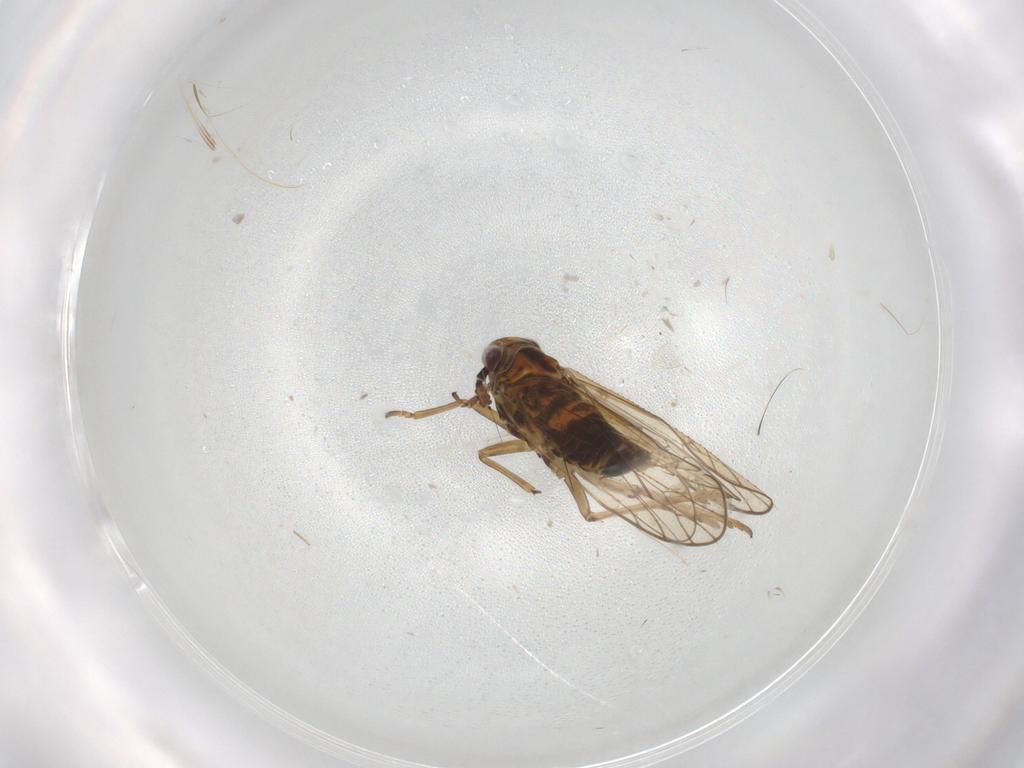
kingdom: Animalia
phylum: Arthropoda
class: Insecta
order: Hemiptera
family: Delphacidae
